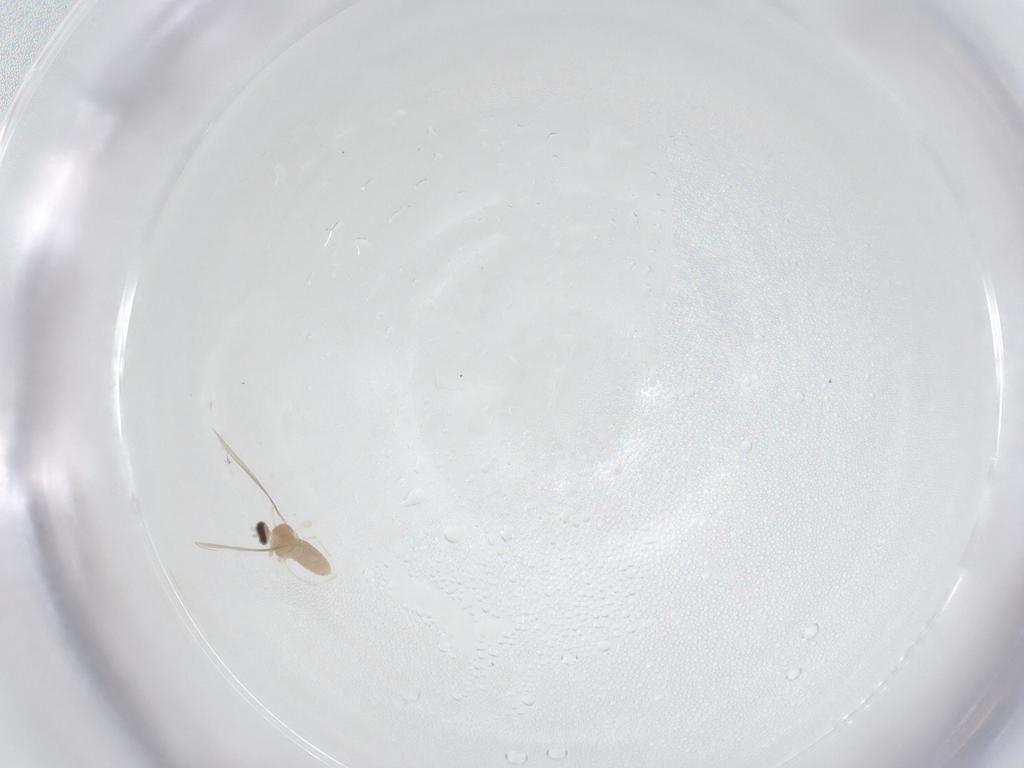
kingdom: Animalia
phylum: Arthropoda
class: Insecta
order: Diptera
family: Cecidomyiidae
